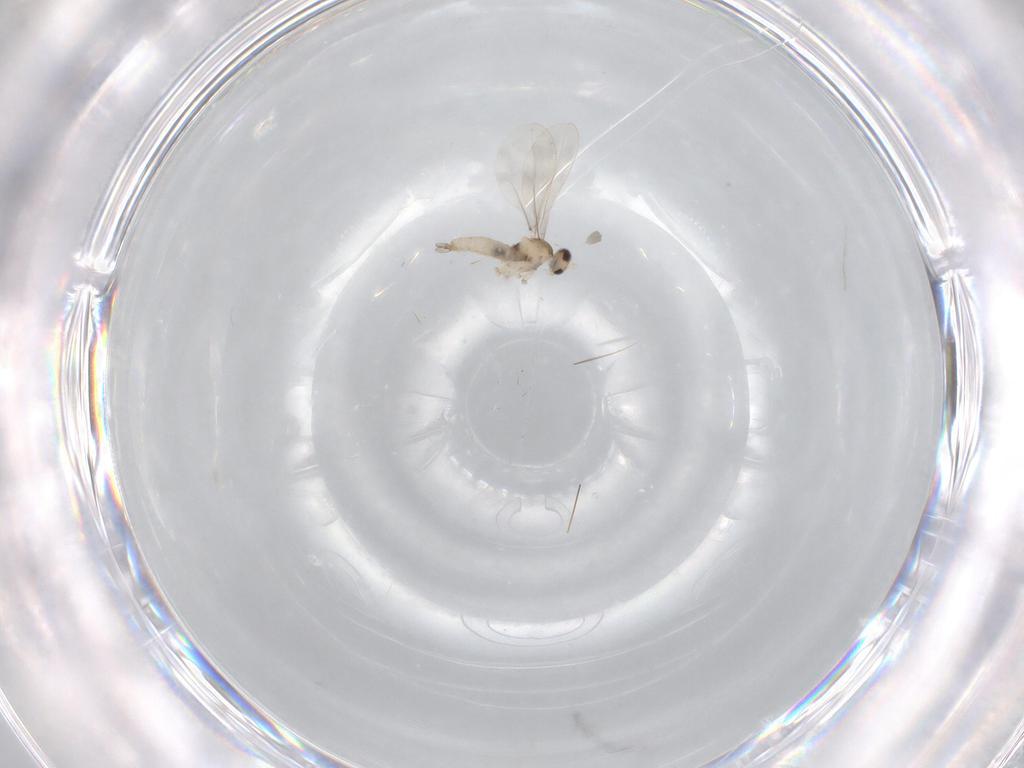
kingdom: Animalia
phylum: Arthropoda
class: Insecta
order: Diptera
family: Cecidomyiidae
